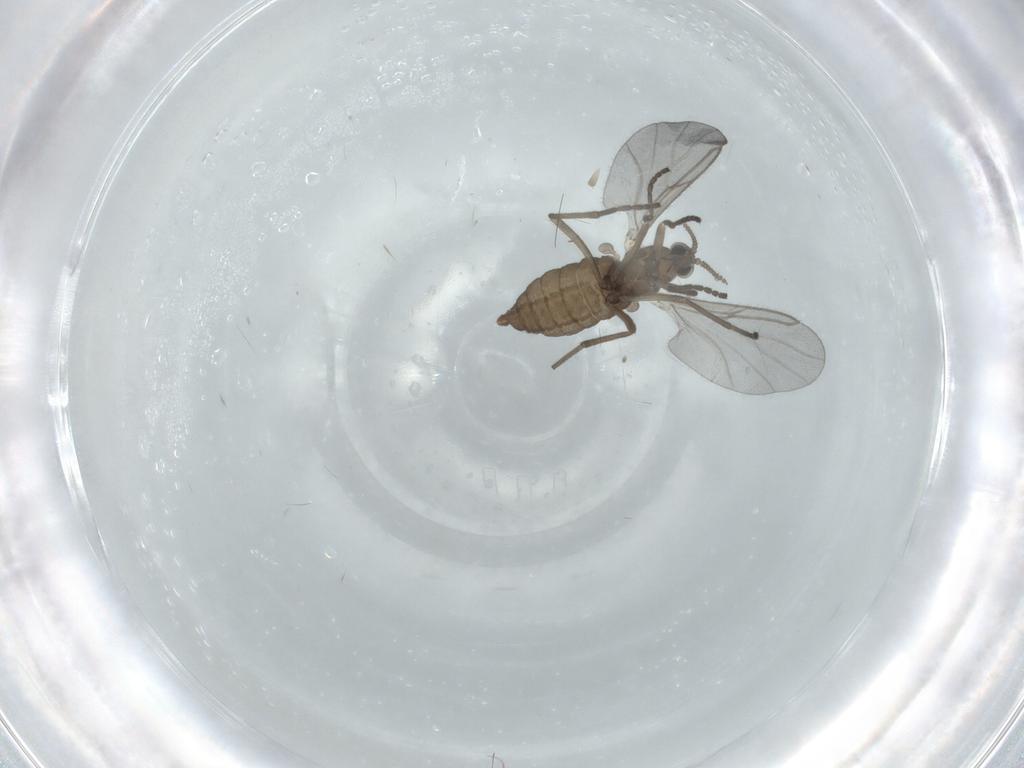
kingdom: Animalia
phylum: Arthropoda
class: Insecta
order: Diptera
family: Cecidomyiidae
